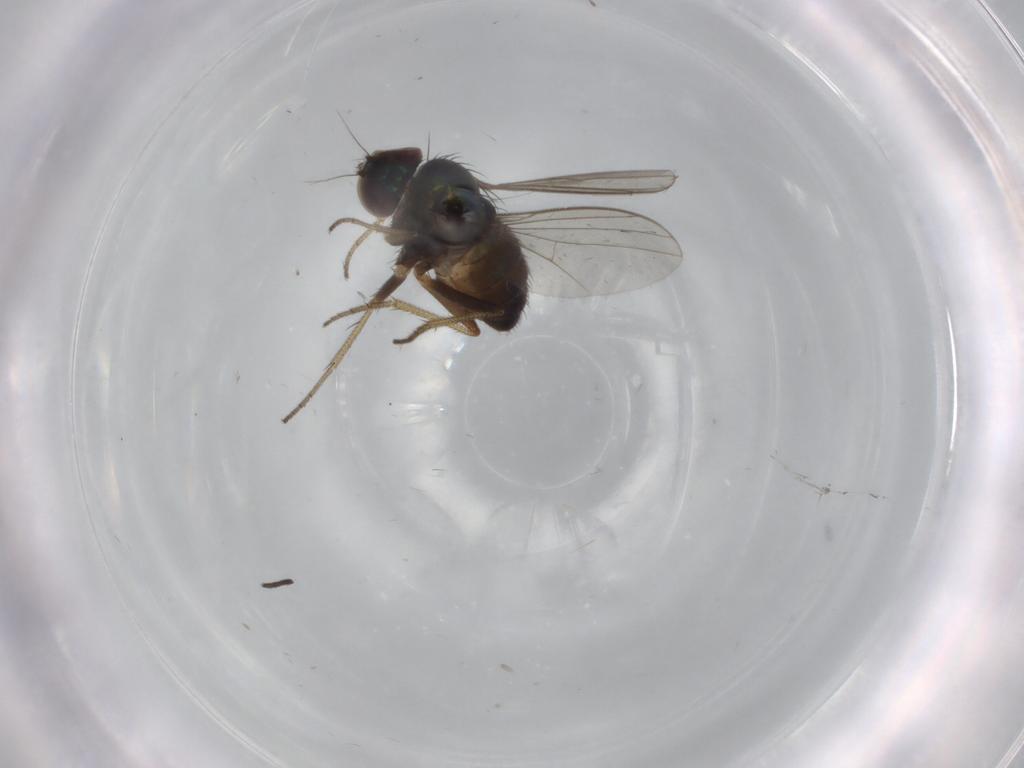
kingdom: Animalia
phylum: Arthropoda
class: Insecta
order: Diptera
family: Dolichopodidae
